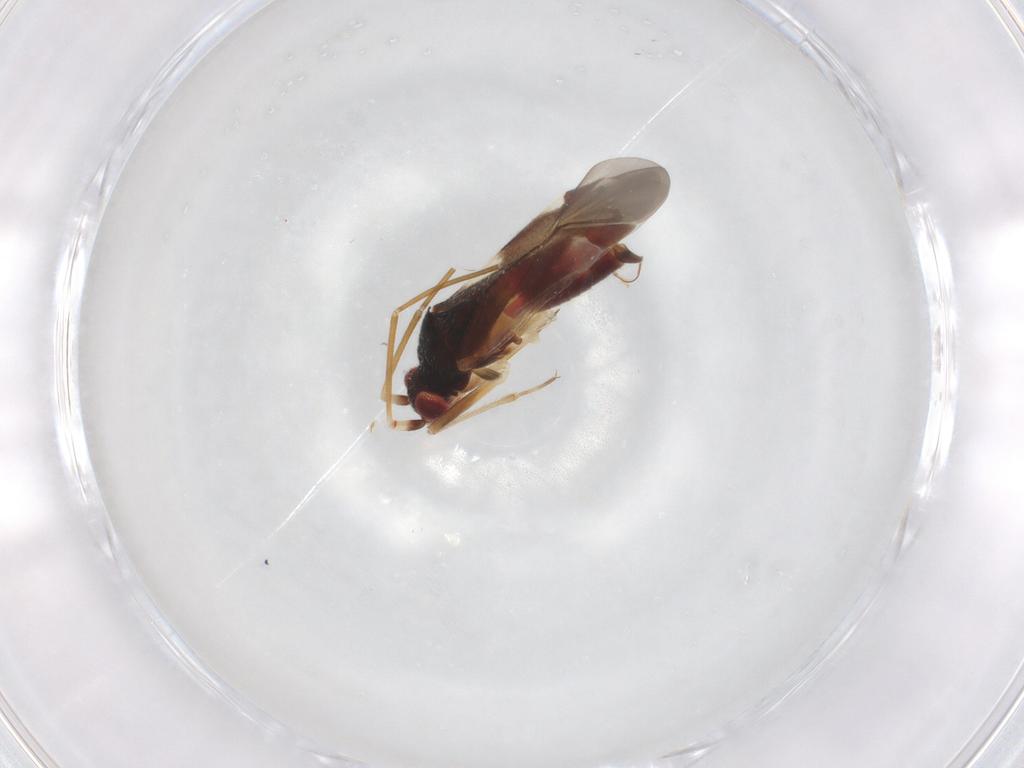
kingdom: Animalia
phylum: Arthropoda
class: Insecta
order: Hemiptera
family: Miridae
